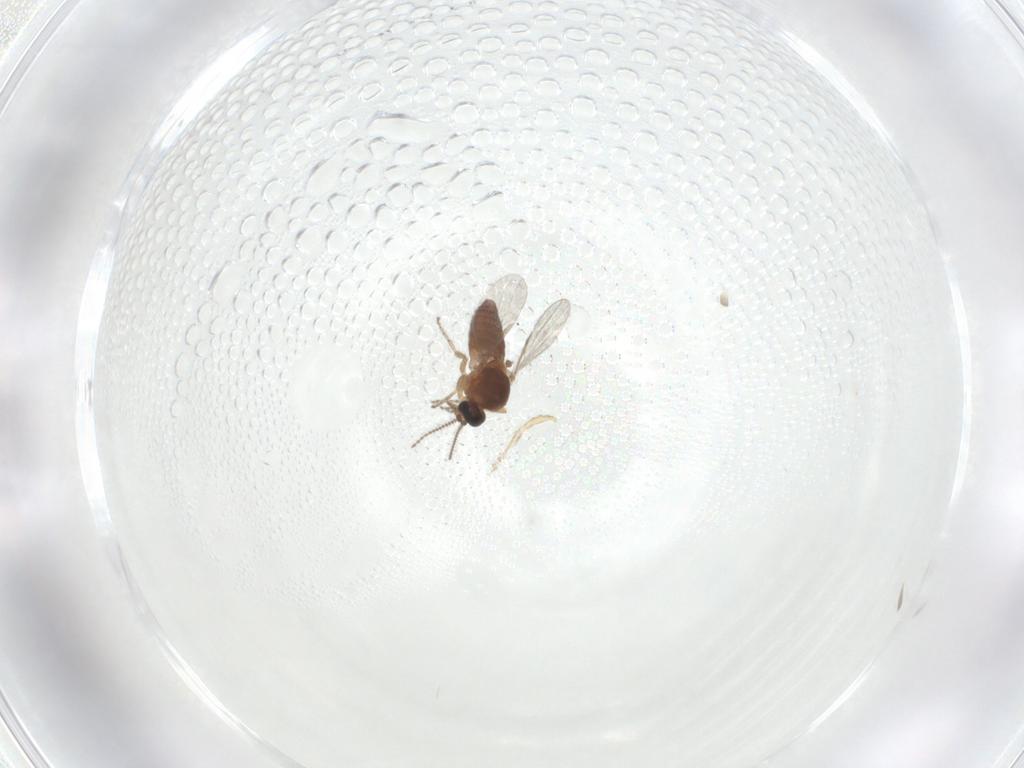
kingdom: Animalia
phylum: Arthropoda
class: Insecta
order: Diptera
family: Ceratopogonidae
